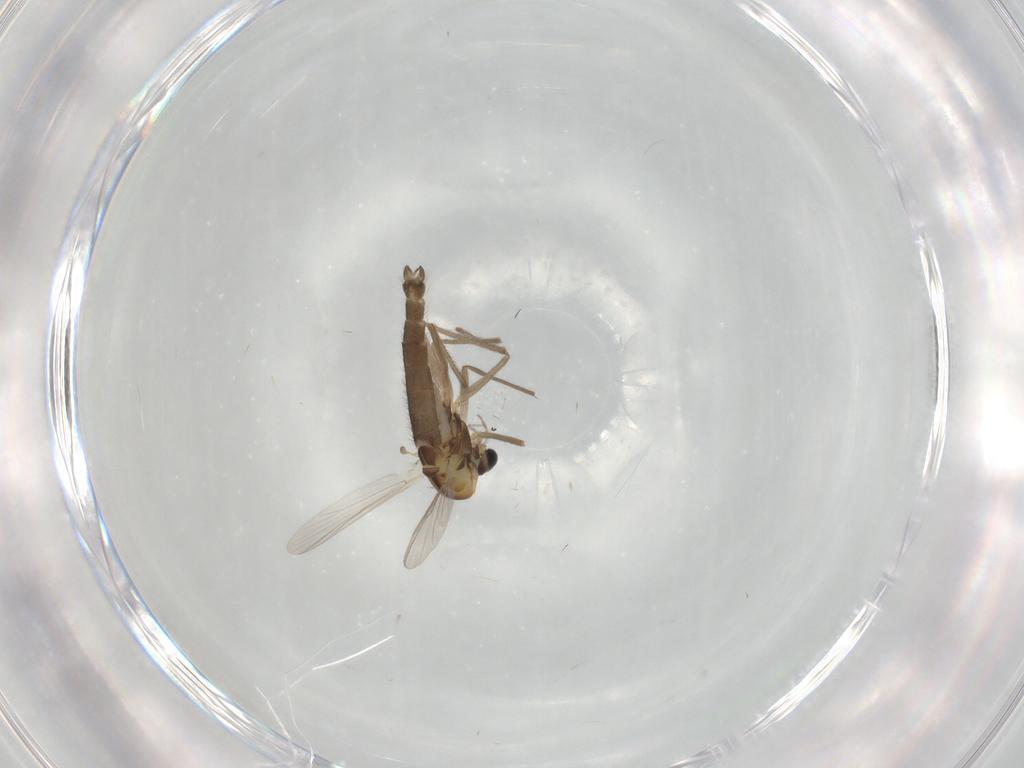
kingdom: Animalia
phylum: Arthropoda
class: Insecta
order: Diptera
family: Chironomidae
